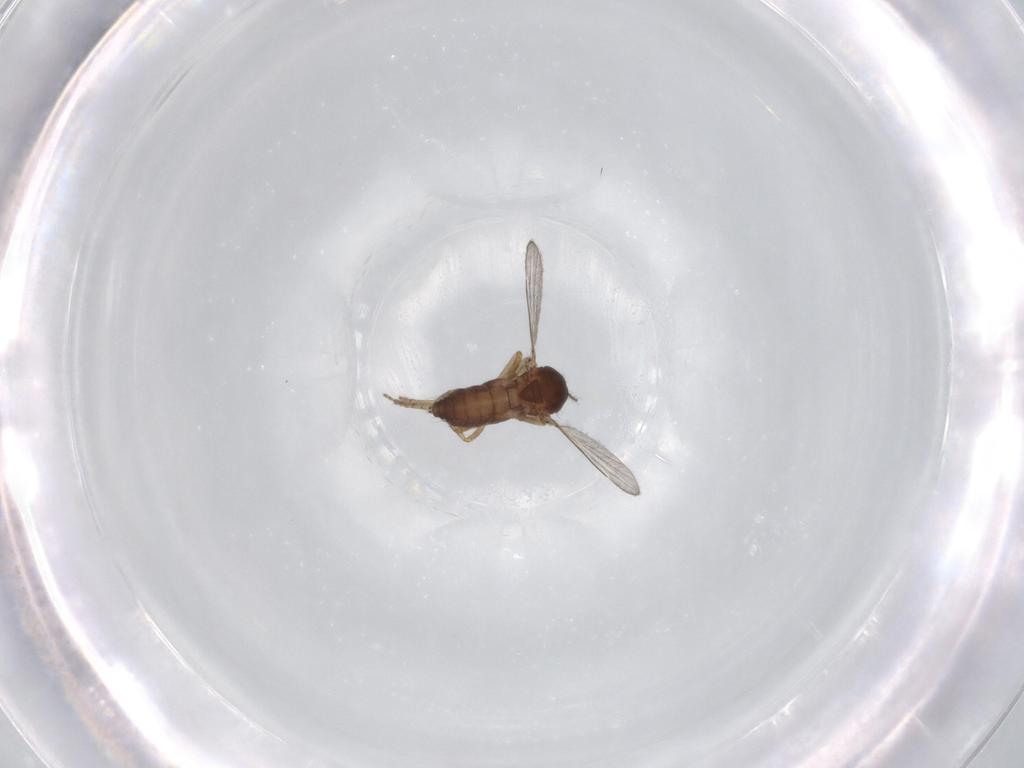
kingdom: Animalia
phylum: Arthropoda
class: Insecta
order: Diptera
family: Ceratopogonidae
